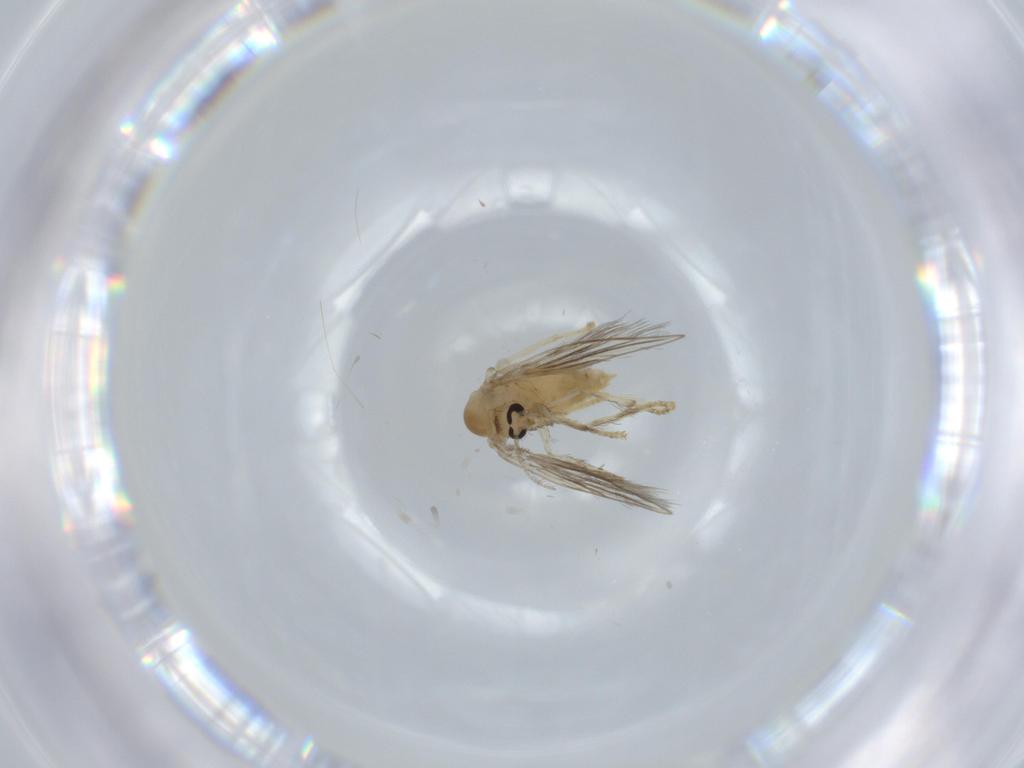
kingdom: Animalia
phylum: Arthropoda
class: Insecta
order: Diptera
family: Psychodidae
